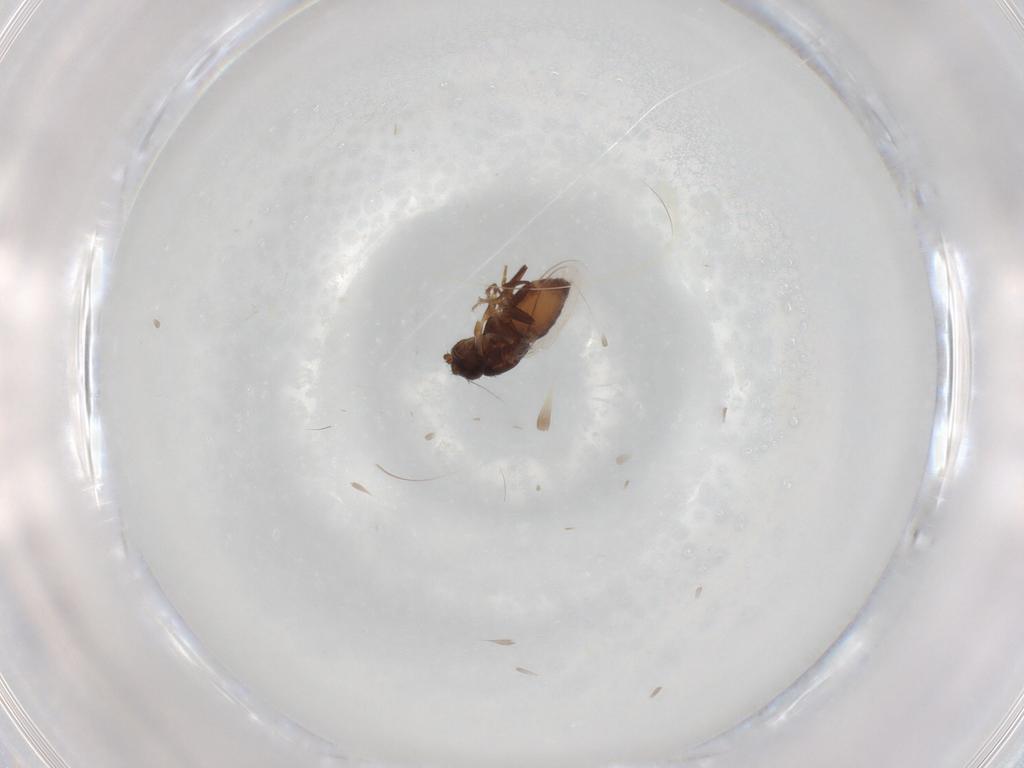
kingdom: Animalia
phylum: Arthropoda
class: Insecta
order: Diptera
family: Sphaeroceridae
